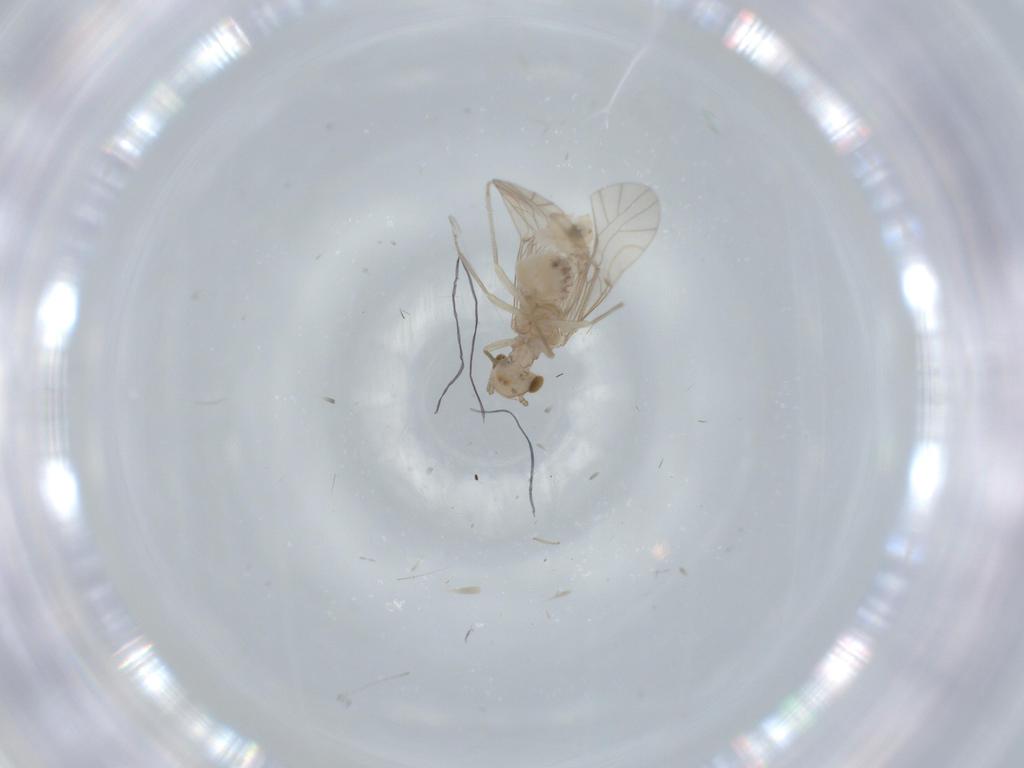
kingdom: Animalia
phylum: Arthropoda
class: Insecta
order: Psocodea
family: Lachesillidae
